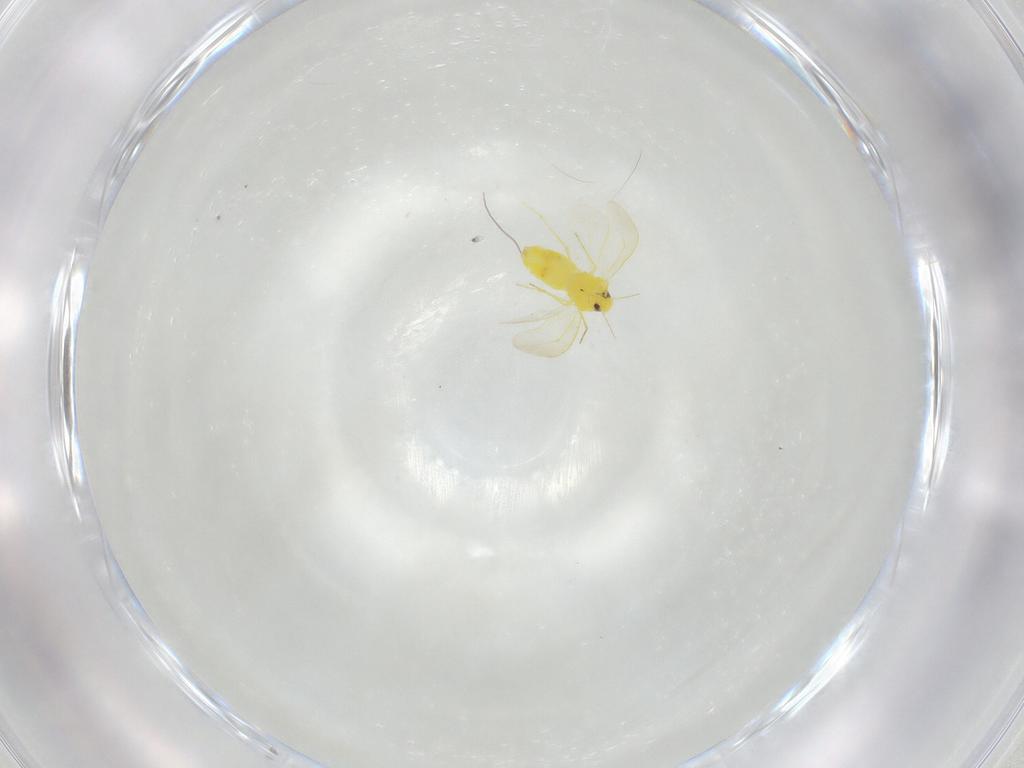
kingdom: Animalia
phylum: Arthropoda
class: Insecta
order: Hemiptera
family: Aleyrodidae
